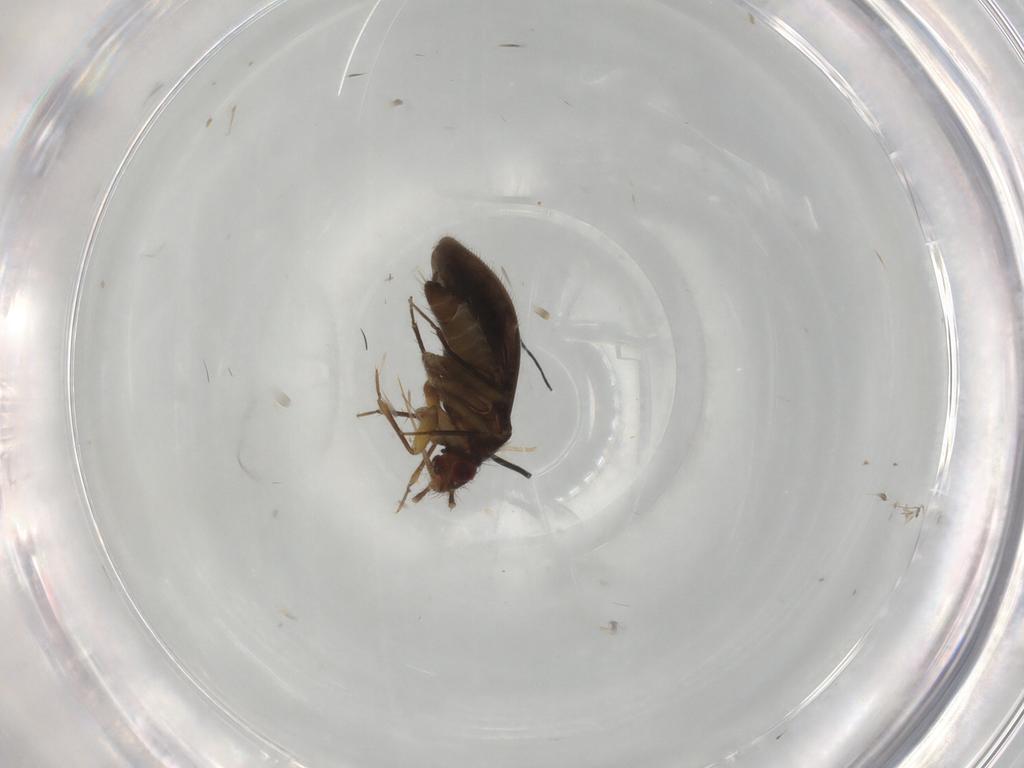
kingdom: Animalia
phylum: Arthropoda
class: Insecta
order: Hemiptera
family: Ceratocombidae
